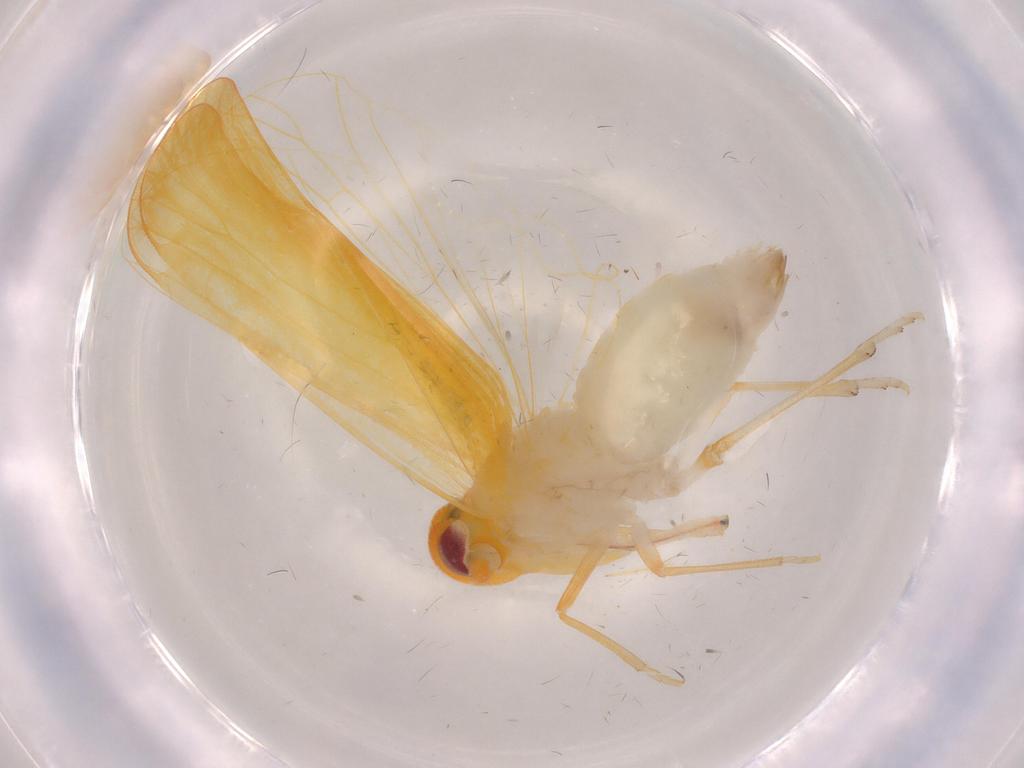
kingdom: Animalia
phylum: Arthropoda
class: Insecta
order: Hemiptera
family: Derbidae
